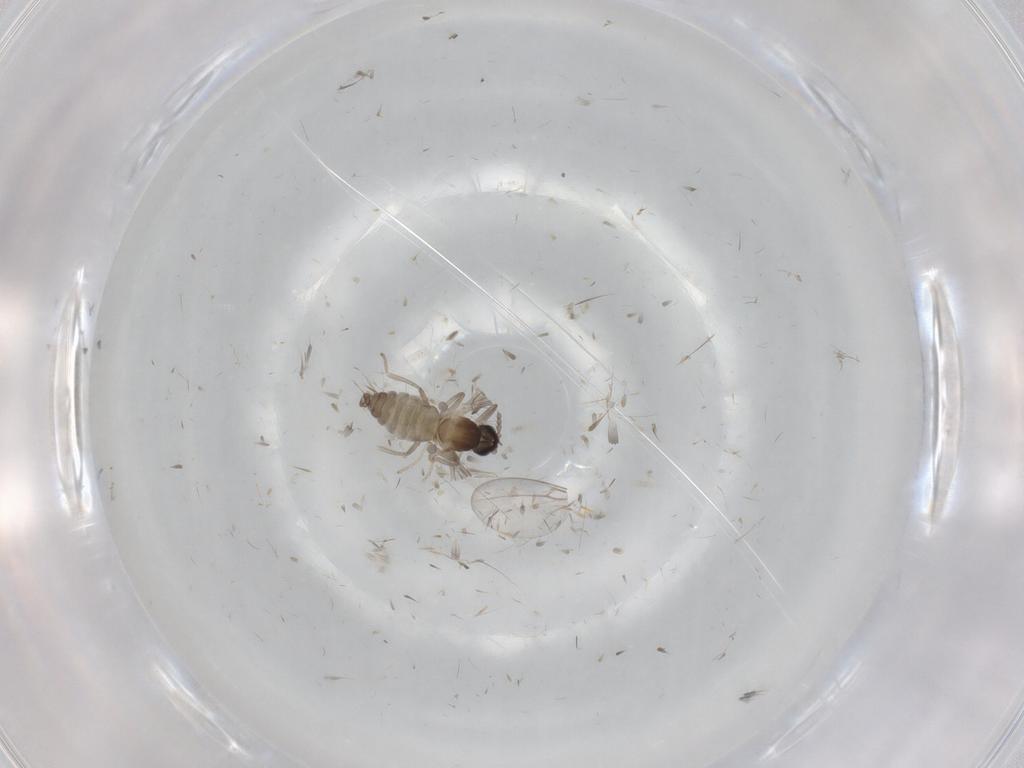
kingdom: Animalia
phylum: Arthropoda
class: Insecta
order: Diptera
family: Cecidomyiidae
